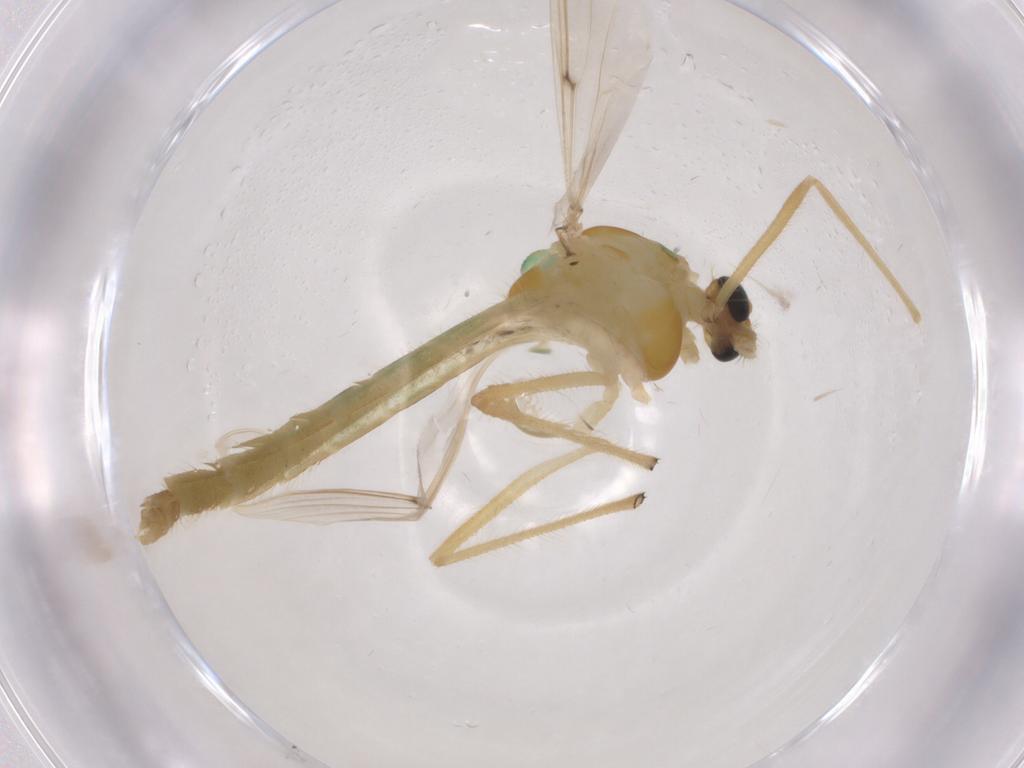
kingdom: Animalia
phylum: Arthropoda
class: Insecta
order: Diptera
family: Chironomidae
